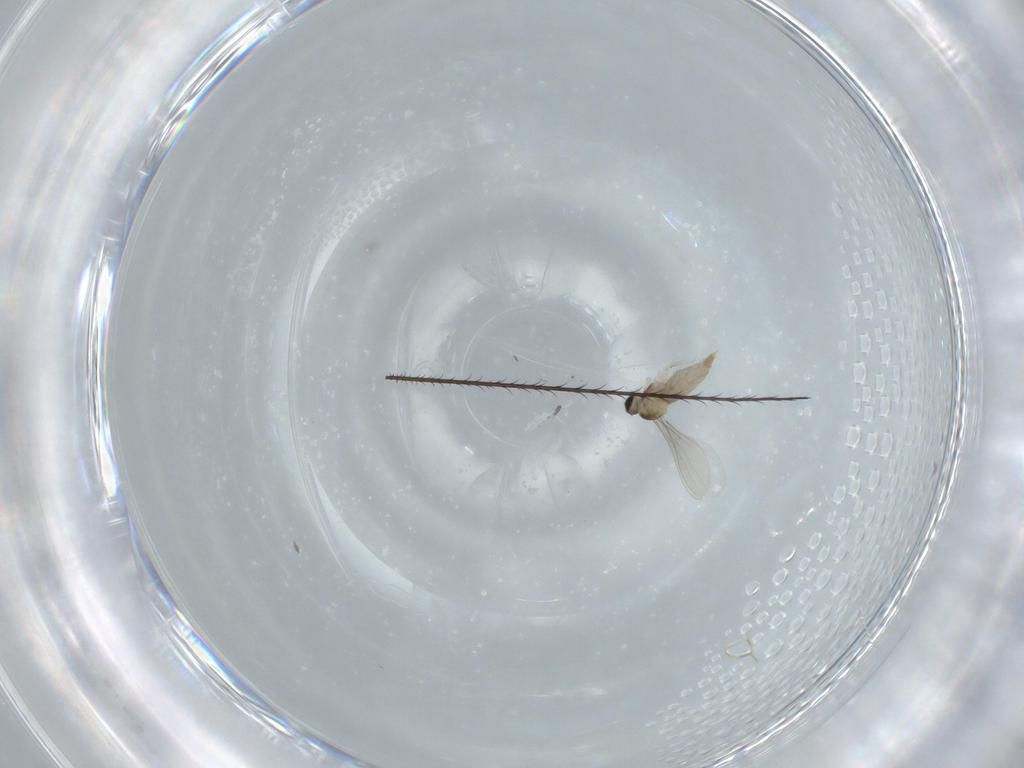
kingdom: Animalia
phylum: Arthropoda
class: Insecta
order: Diptera
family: Ceratopogonidae
